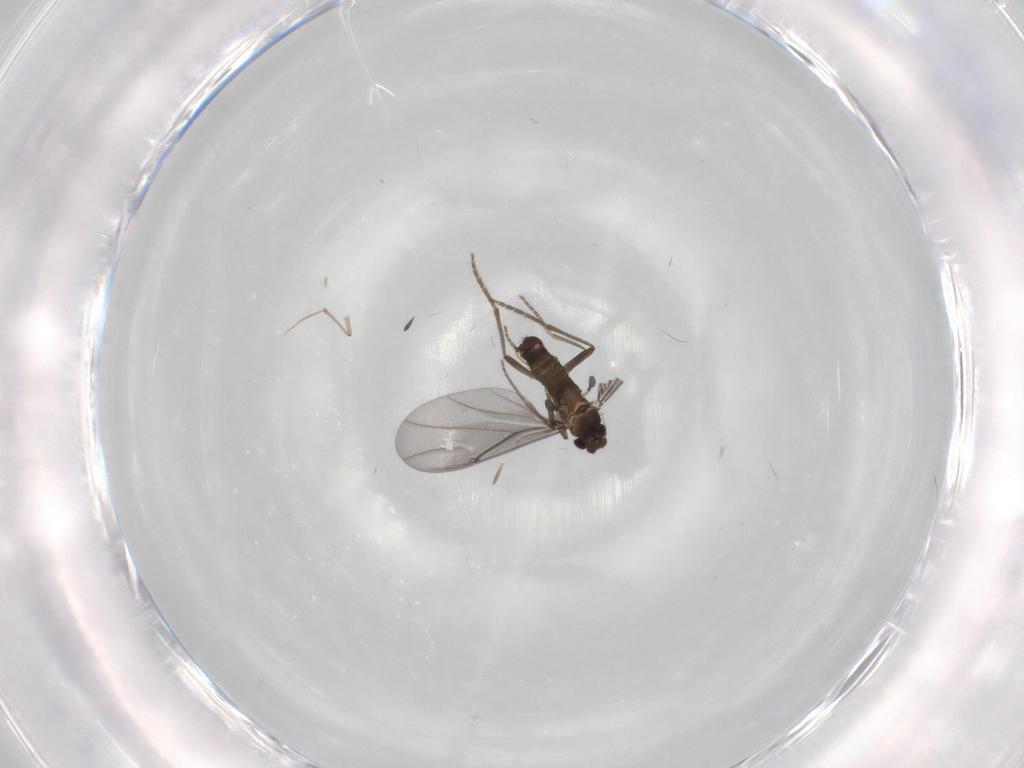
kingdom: Animalia
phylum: Arthropoda
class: Insecta
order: Diptera
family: Phoridae
